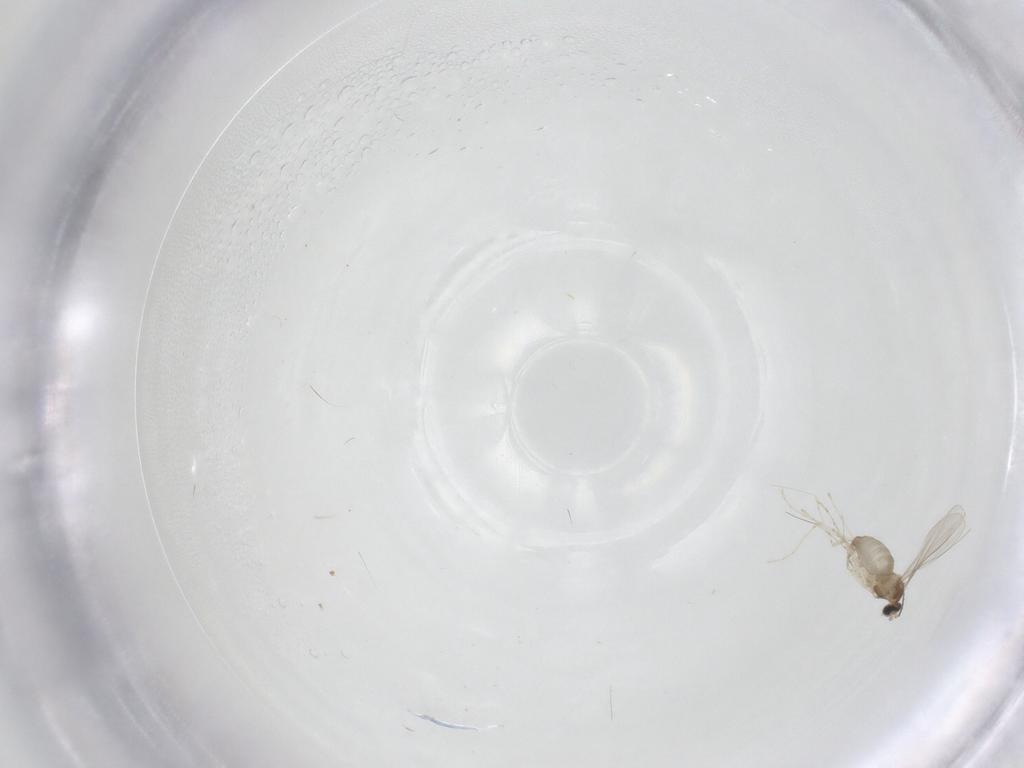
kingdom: Animalia
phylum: Arthropoda
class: Insecta
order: Diptera
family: Cecidomyiidae
